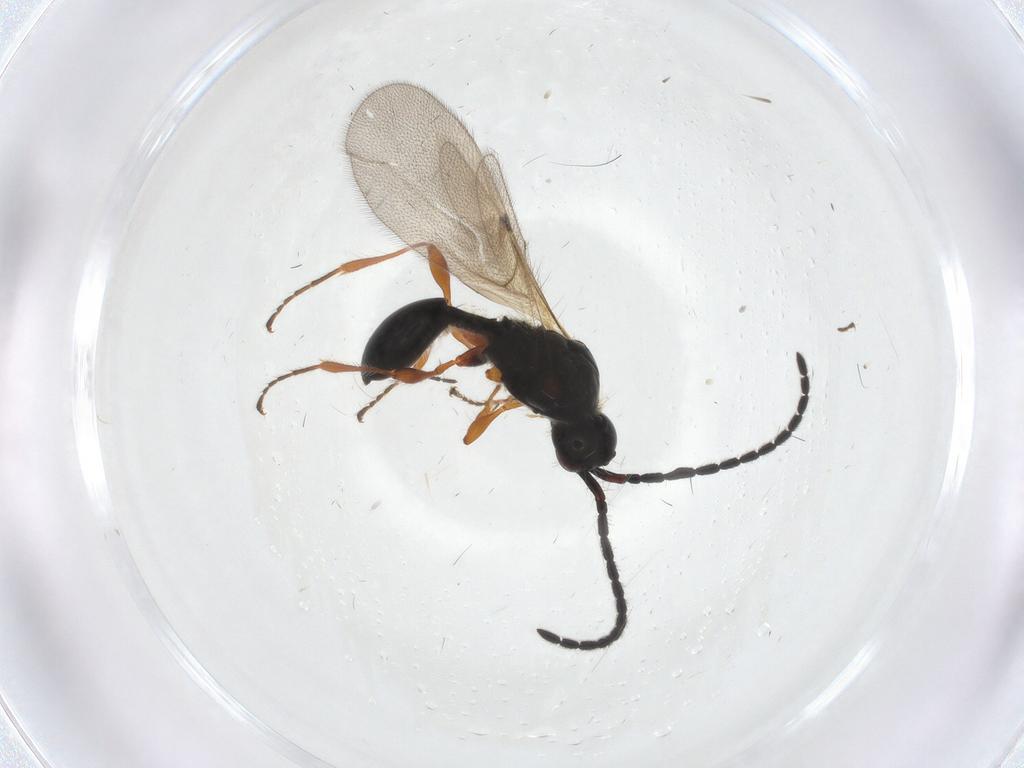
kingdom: Animalia
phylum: Arthropoda
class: Insecta
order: Hymenoptera
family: Diapriidae
